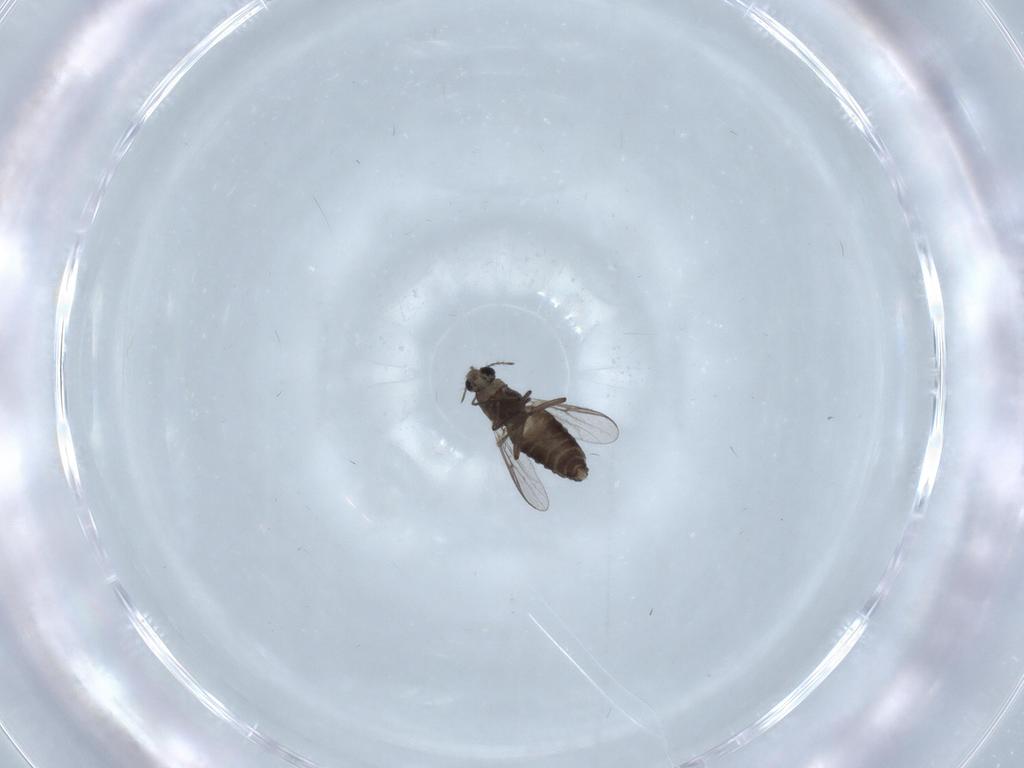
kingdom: Animalia
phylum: Arthropoda
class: Insecta
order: Diptera
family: Chironomidae
